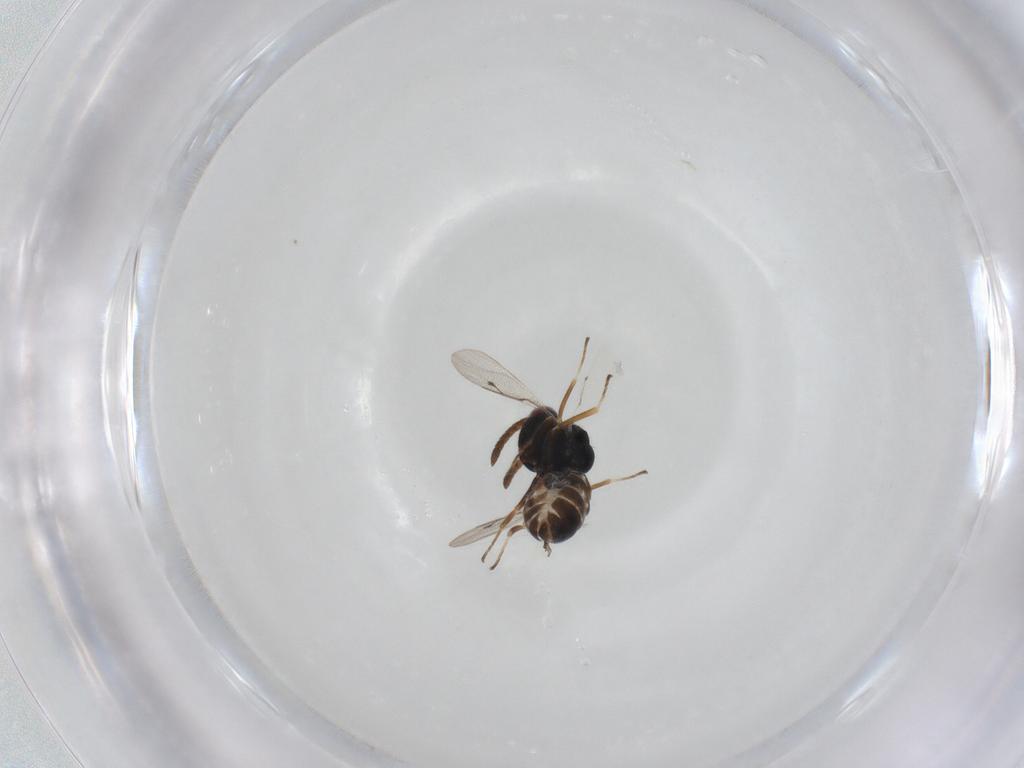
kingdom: Animalia
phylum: Arthropoda
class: Insecta
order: Hymenoptera
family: Pteromalidae
